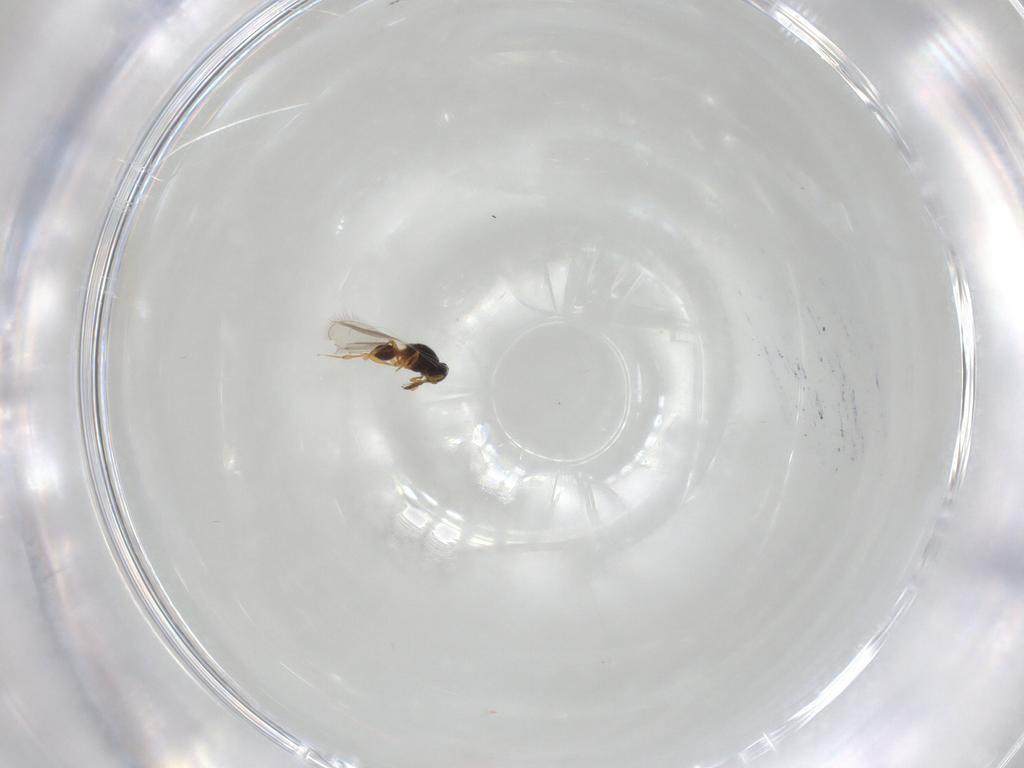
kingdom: Animalia
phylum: Arthropoda
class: Insecta
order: Hymenoptera
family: Platygastridae
